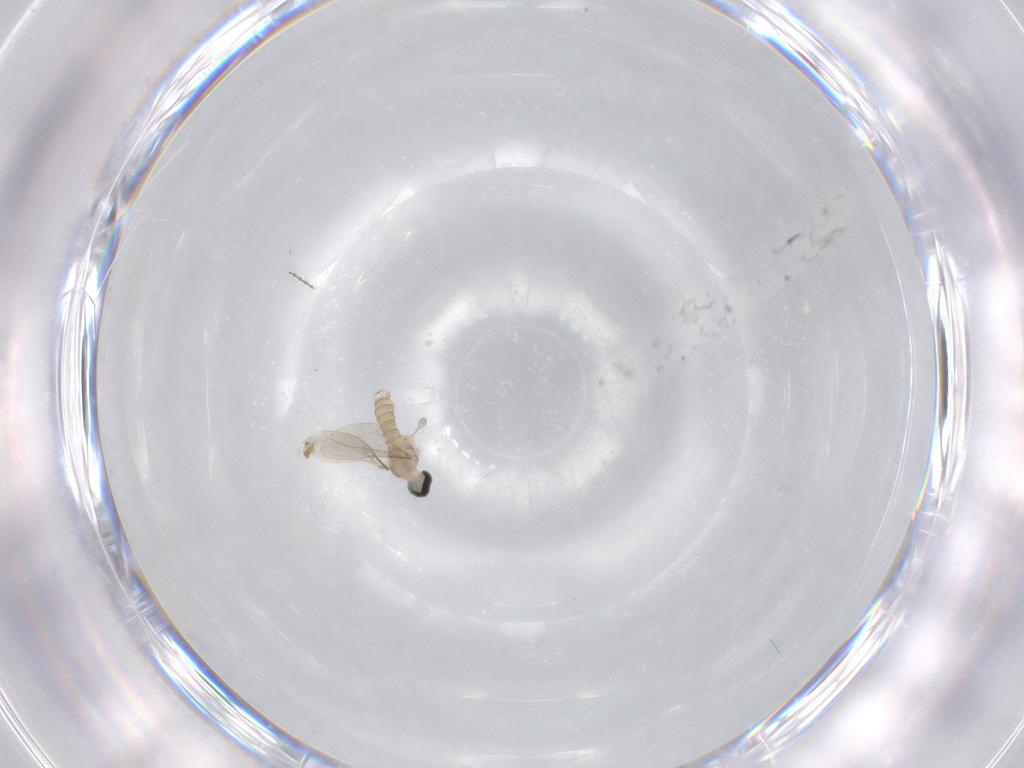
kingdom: Animalia
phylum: Arthropoda
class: Insecta
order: Diptera
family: Cecidomyiidae
